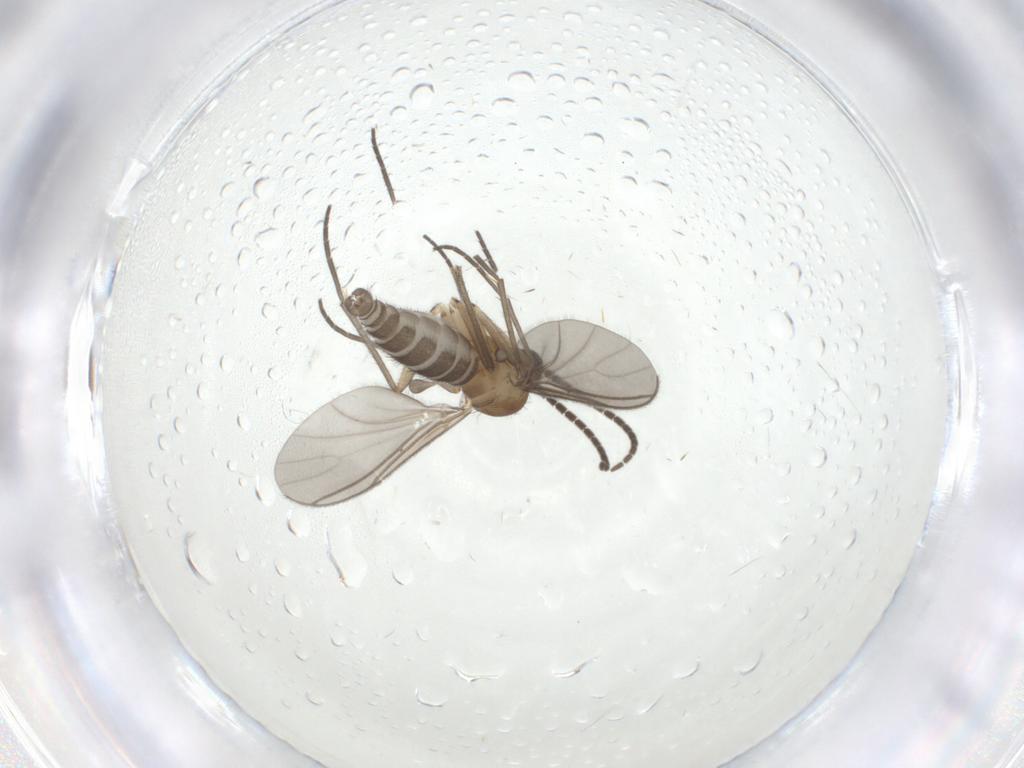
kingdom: Animalia
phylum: Arthropoda
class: Insecta
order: Diptera
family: Sciaridae
